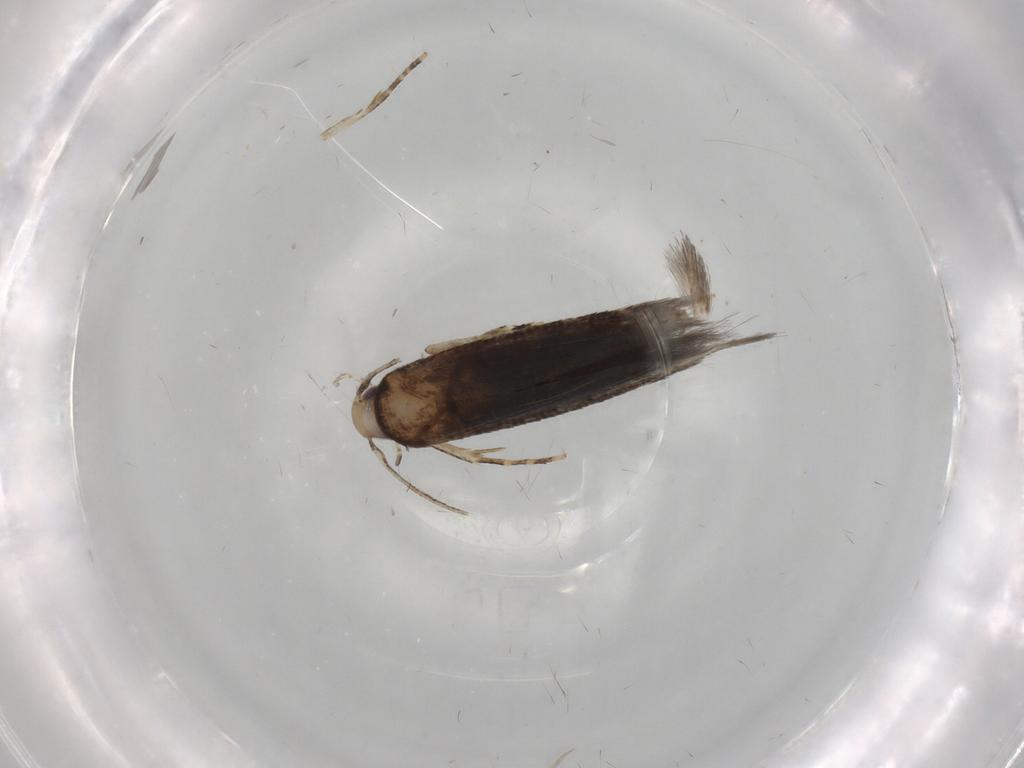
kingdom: Animalia
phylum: Arthropoda
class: Insecta
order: Lepidoptera
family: Cosmopterigidae
